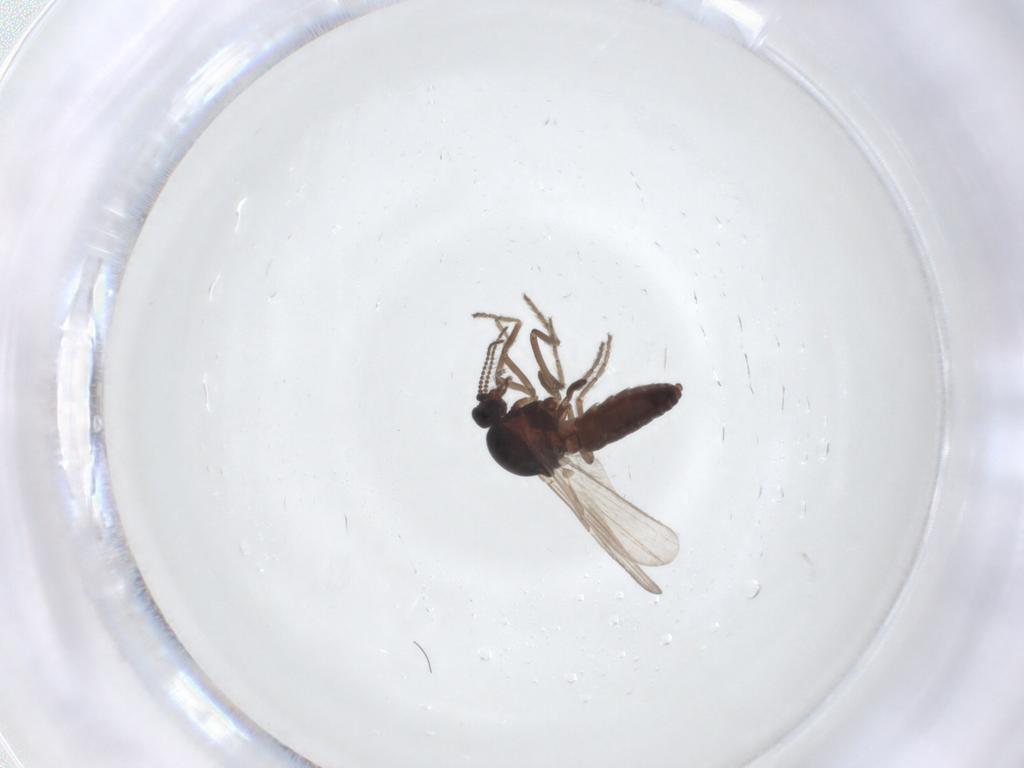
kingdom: Animalia
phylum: Arthropoda
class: Insecta
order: Diptera
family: Ceratopogonidae
